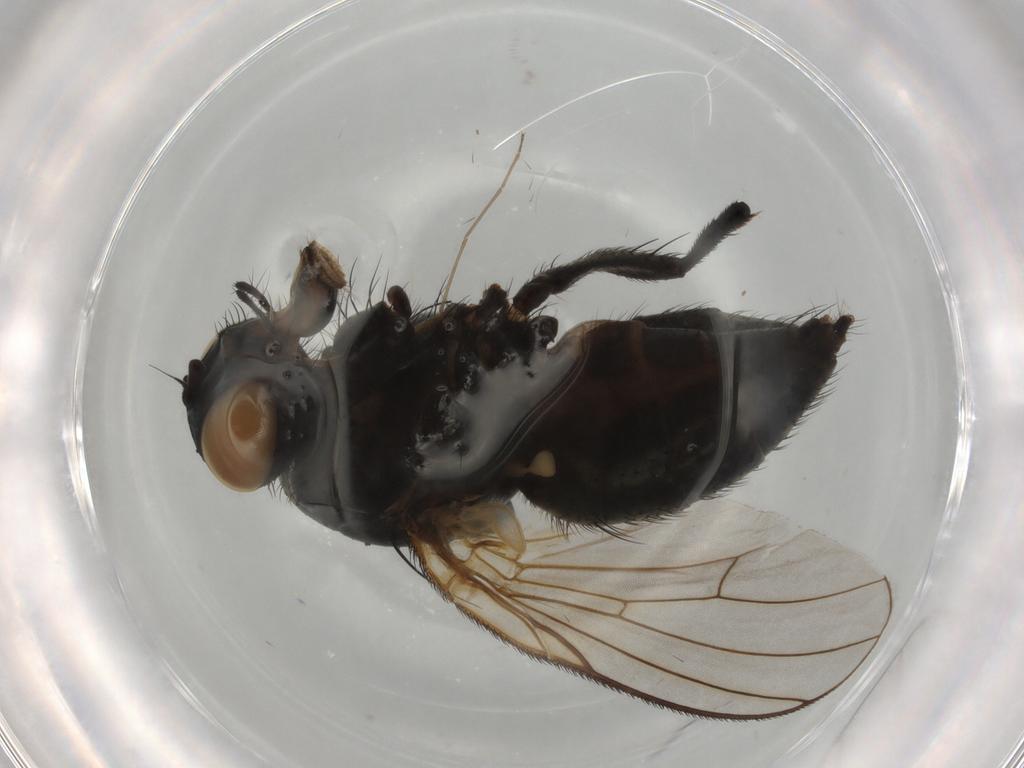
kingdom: Animalia
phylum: Arthropoda
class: Insecta
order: Diptera
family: Muscidae
